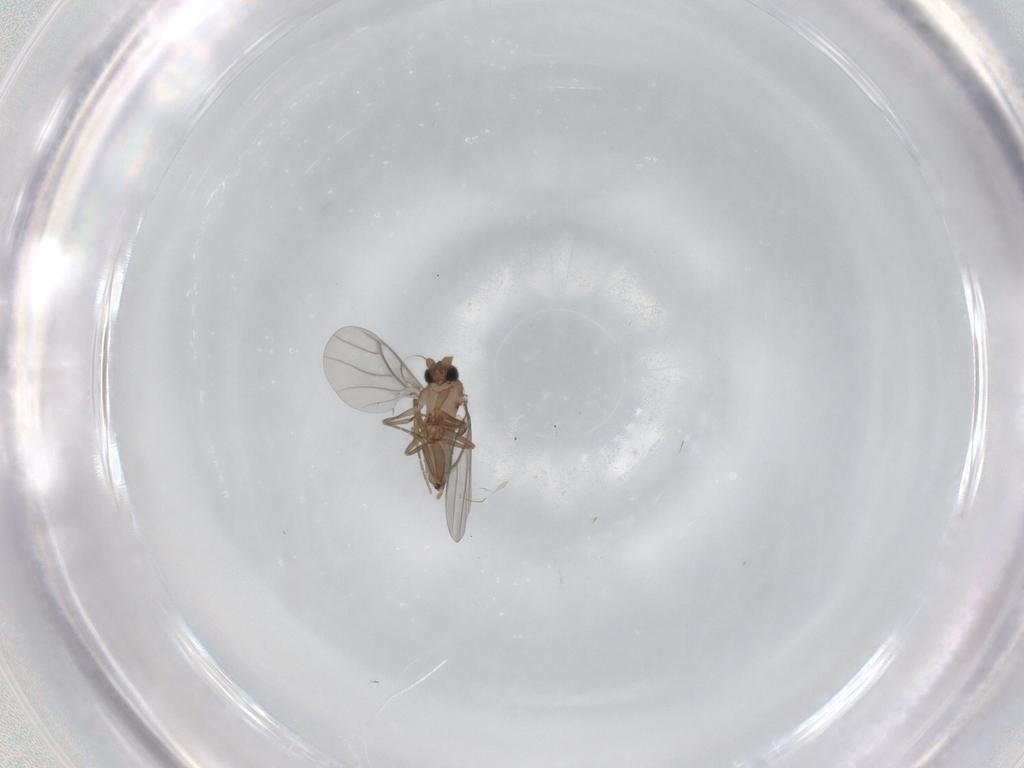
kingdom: Animalia
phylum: Arthropoda
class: Insecta
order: Diptera
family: Ceratopogonidae
